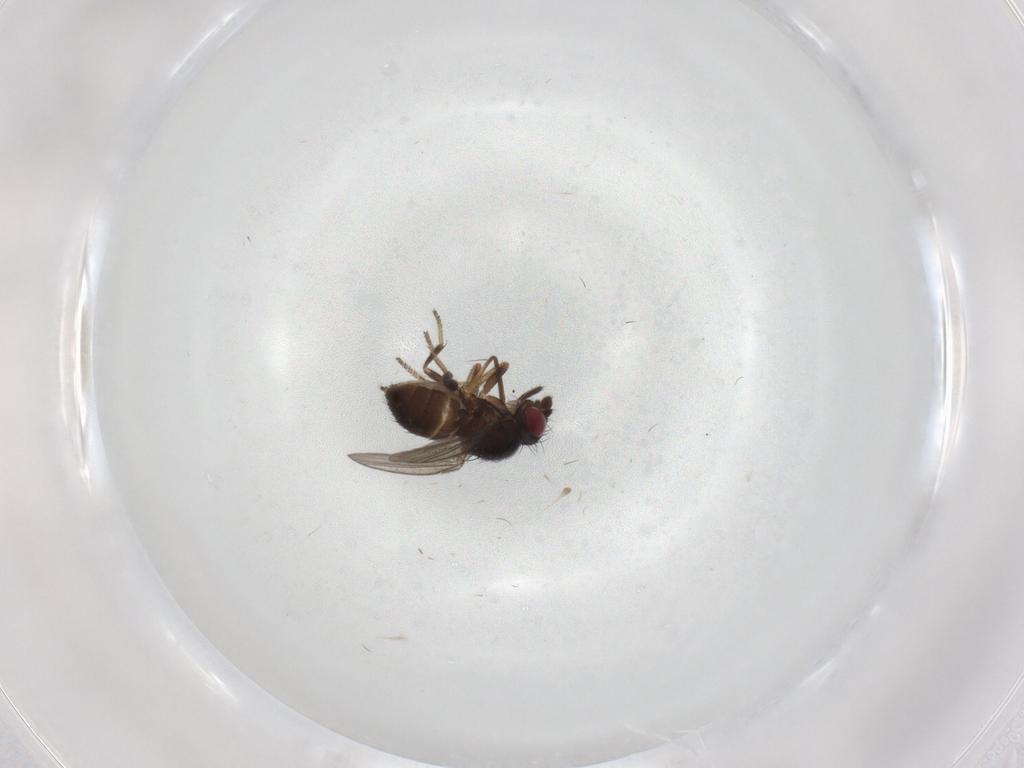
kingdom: Animalia
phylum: Arthropoda
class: Insecta
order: Diptera
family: Milichiidae
